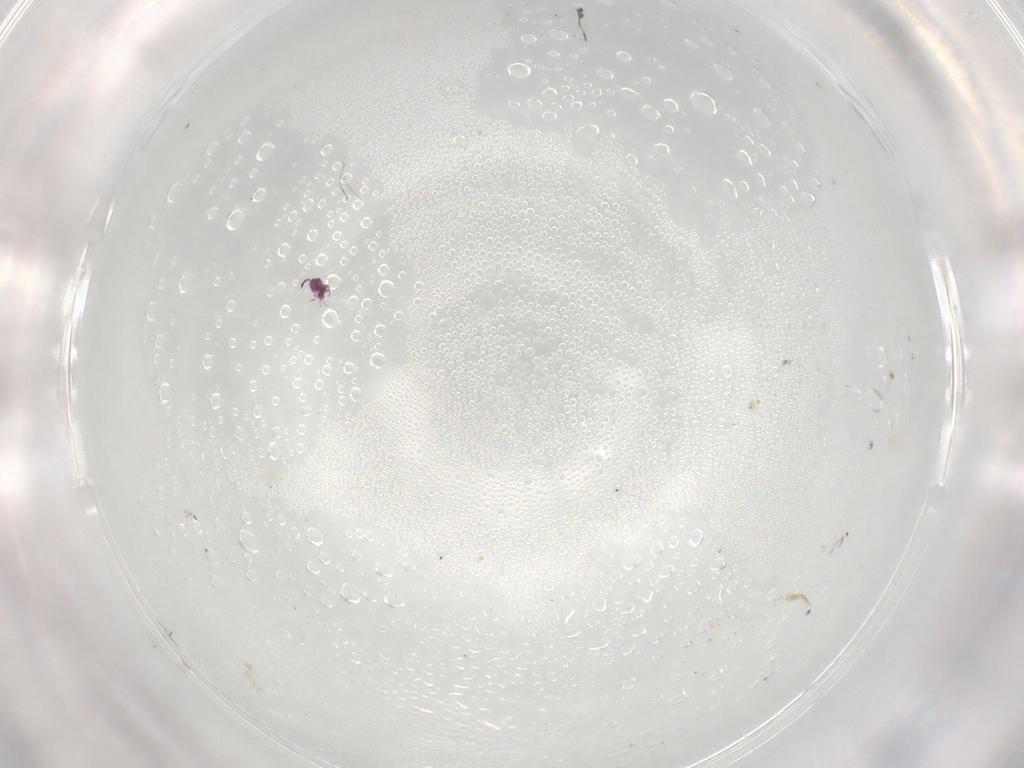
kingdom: Animalia
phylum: Arthropoda
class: Collembola
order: Symphypleona
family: Sminthurididae
